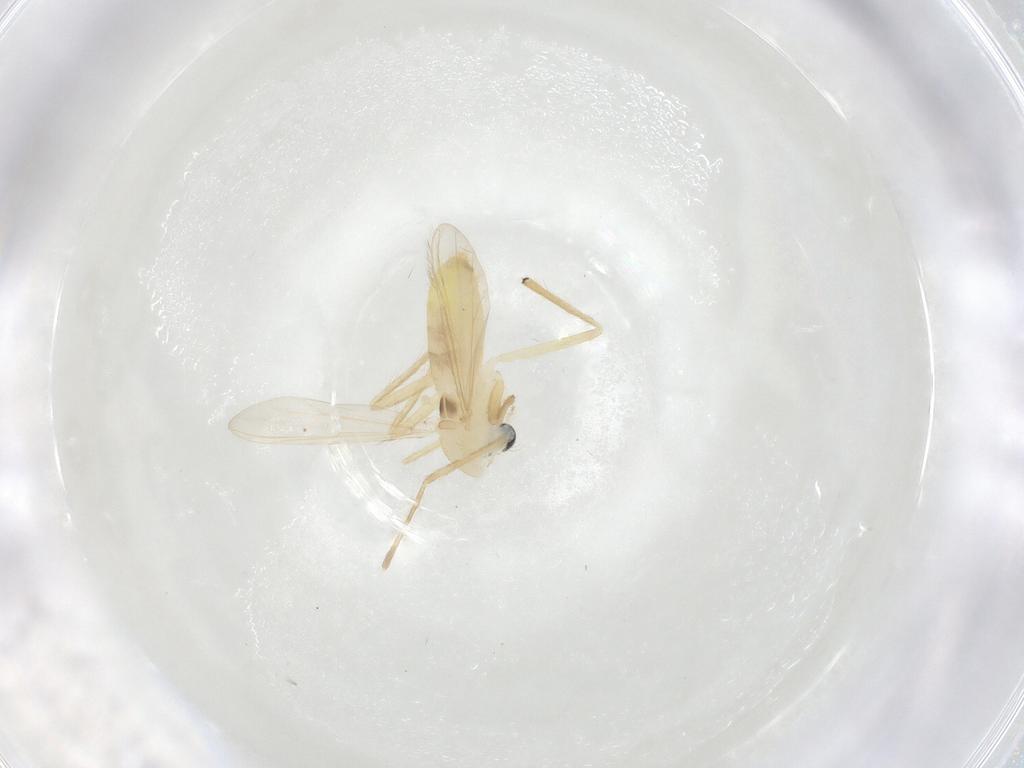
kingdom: Animalia
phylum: Arthropoda
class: Insecta
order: Diptera
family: Chironomidae
